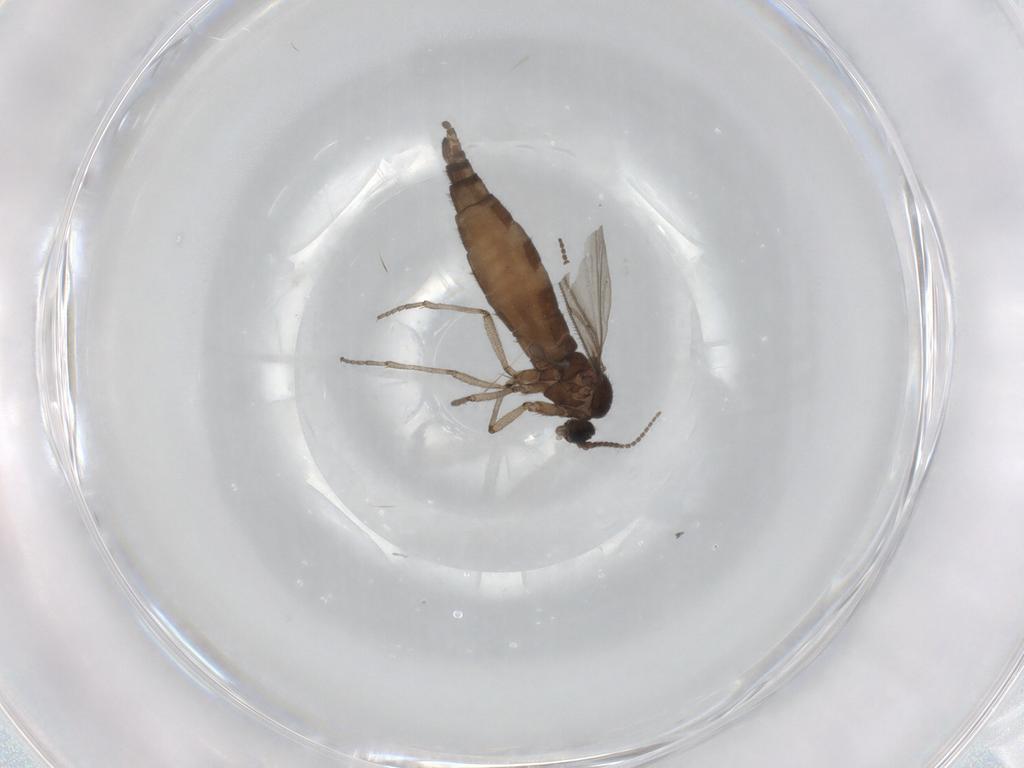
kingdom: Animalia
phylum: Arthropoda
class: Insecta
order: Diptera
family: Sciaridae
